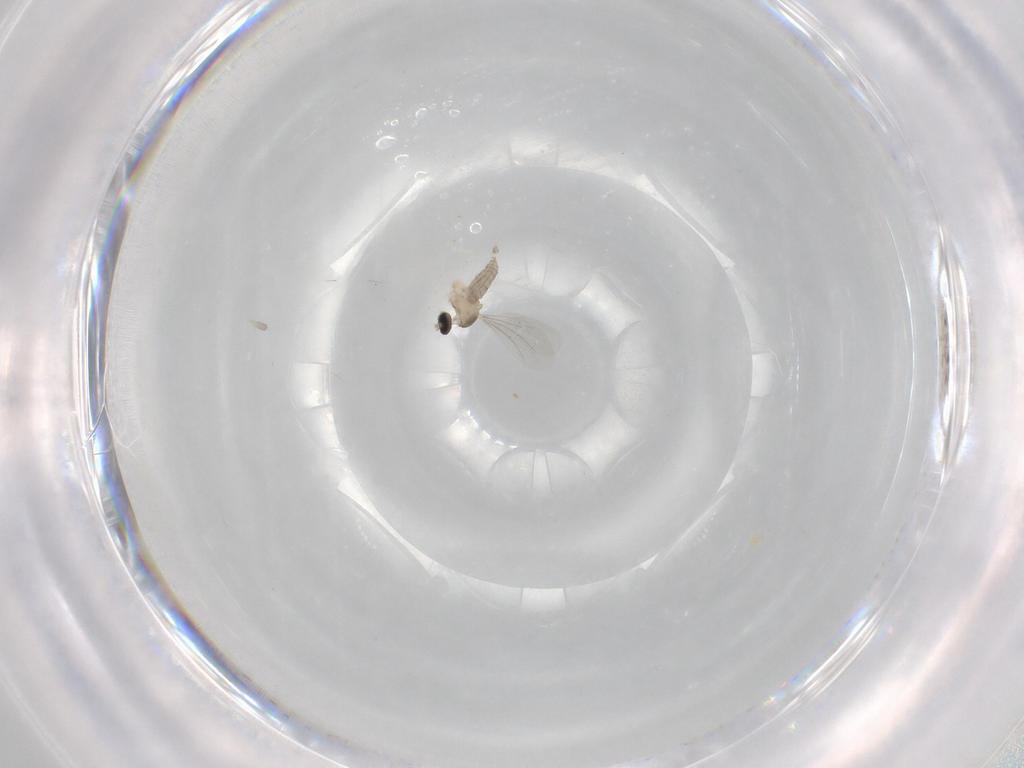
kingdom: Animalia
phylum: Arthropoda
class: Insecta
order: Diptera
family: Cecidomyiidae
